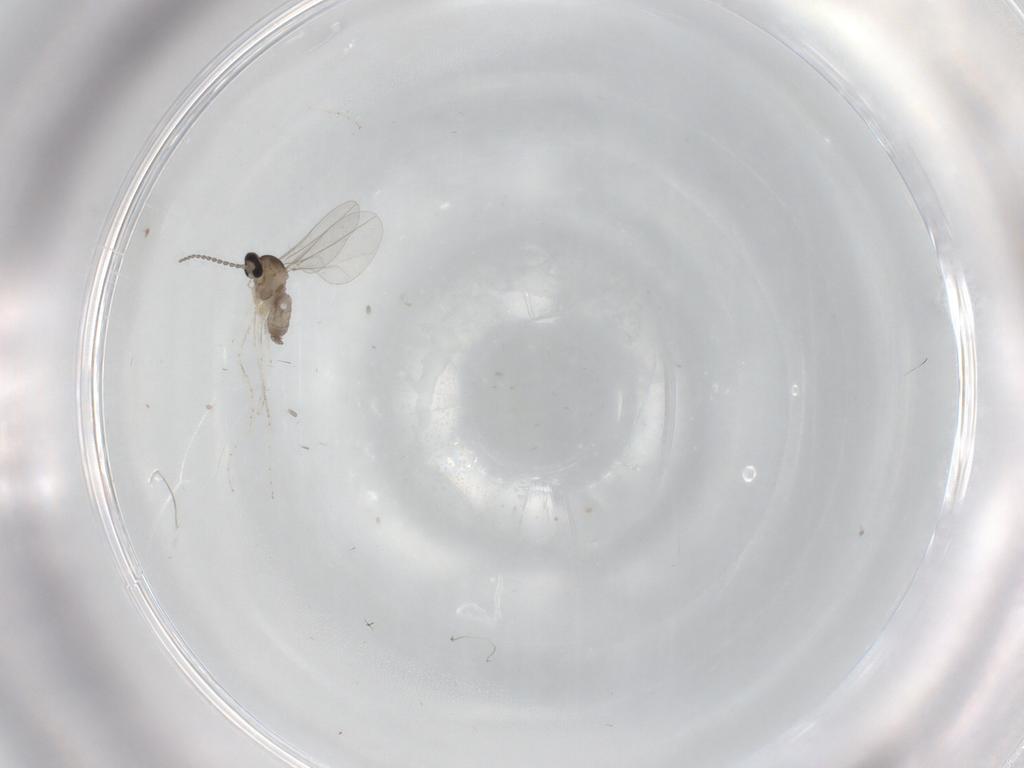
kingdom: Animalia
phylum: Arthropoda
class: Insecta
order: Diptera
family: Cecidomyiidae
